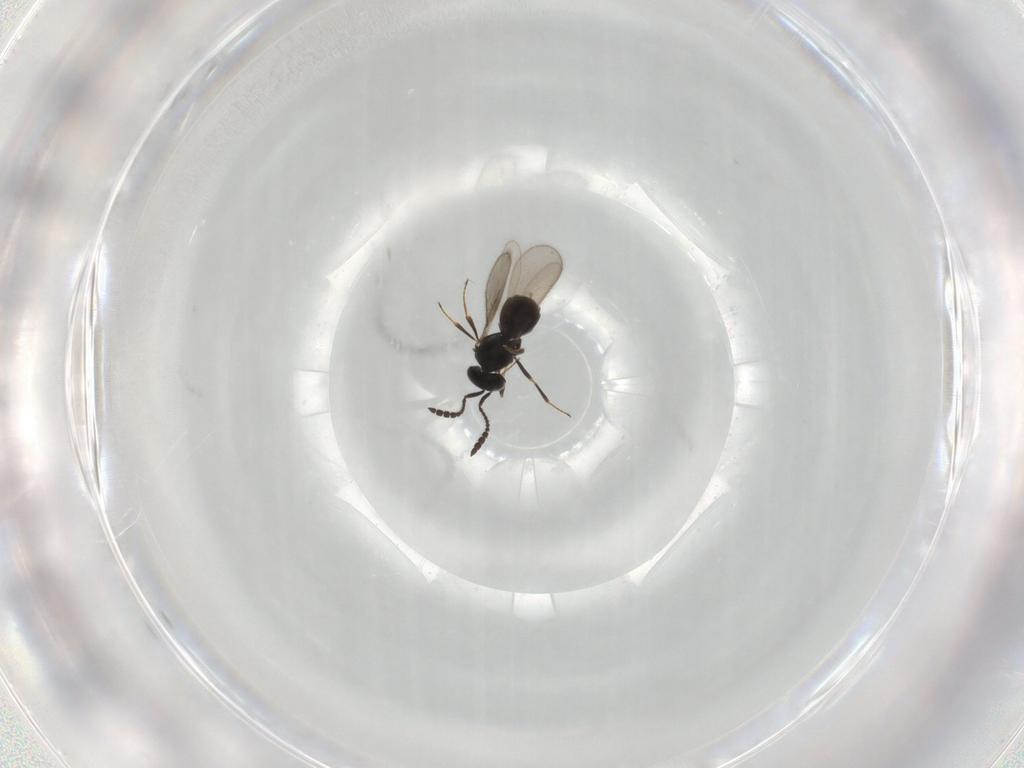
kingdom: Animalia
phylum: Arthropoda
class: Insecta
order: Hymenoptera
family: Scelionidae
